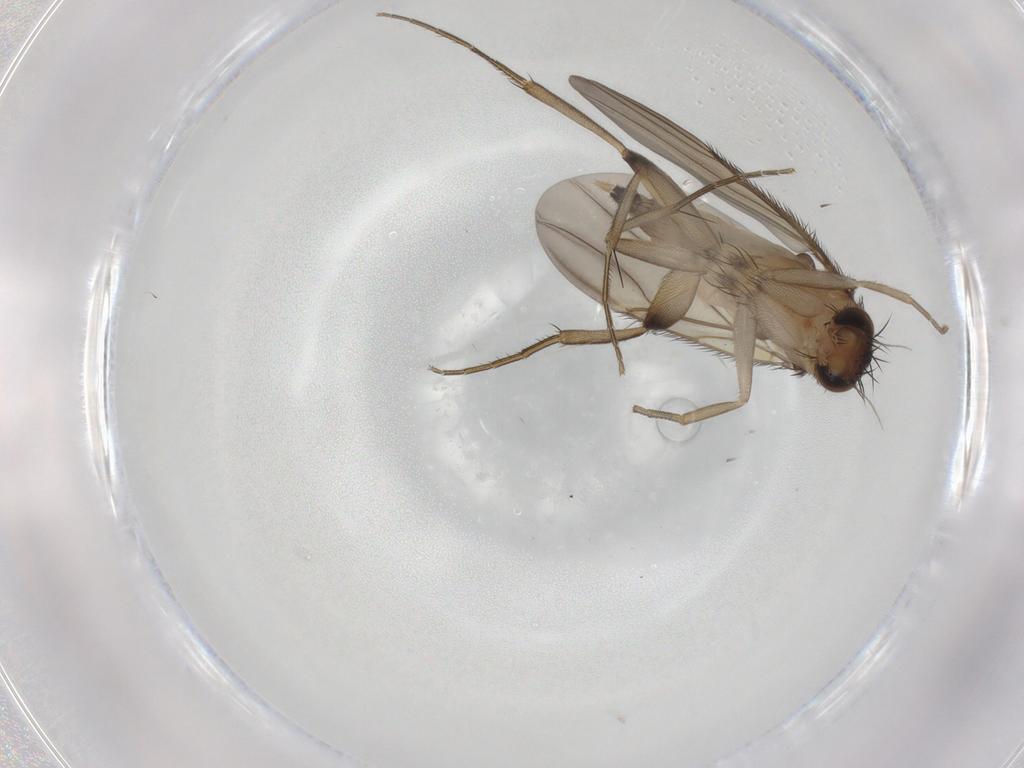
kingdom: Animalia
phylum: Arthropoda
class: Insecta
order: Diptera
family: Phoridae
